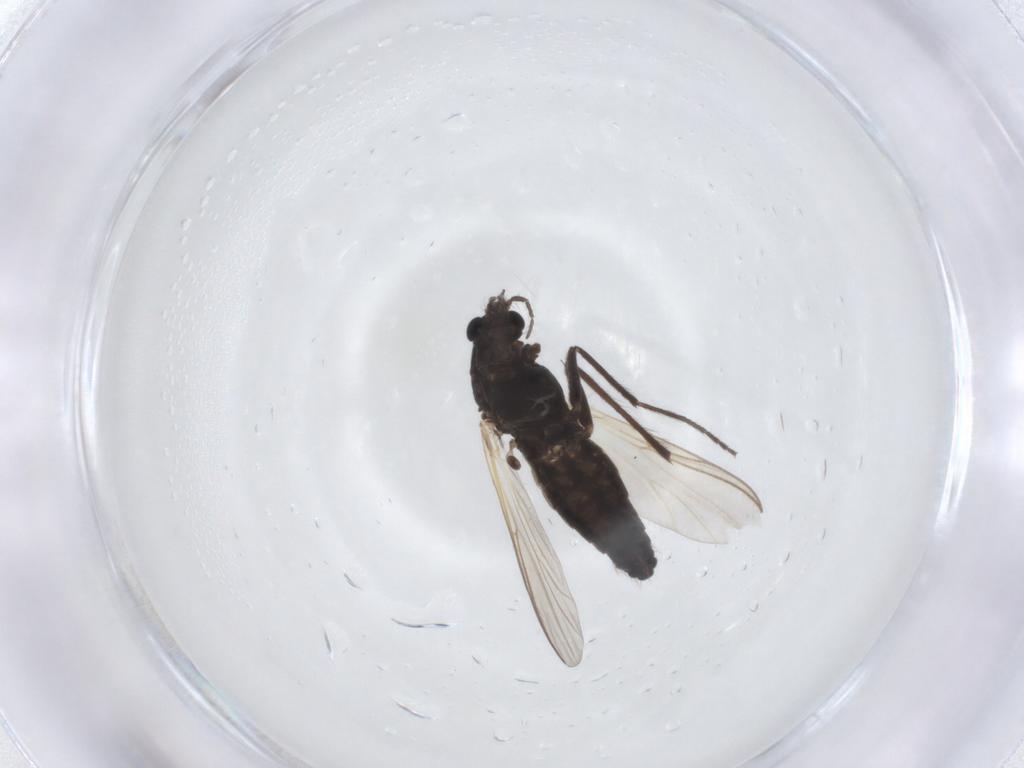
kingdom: Animalia
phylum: Arthropoda
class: Insecta
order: Diptera
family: Chironomidae
